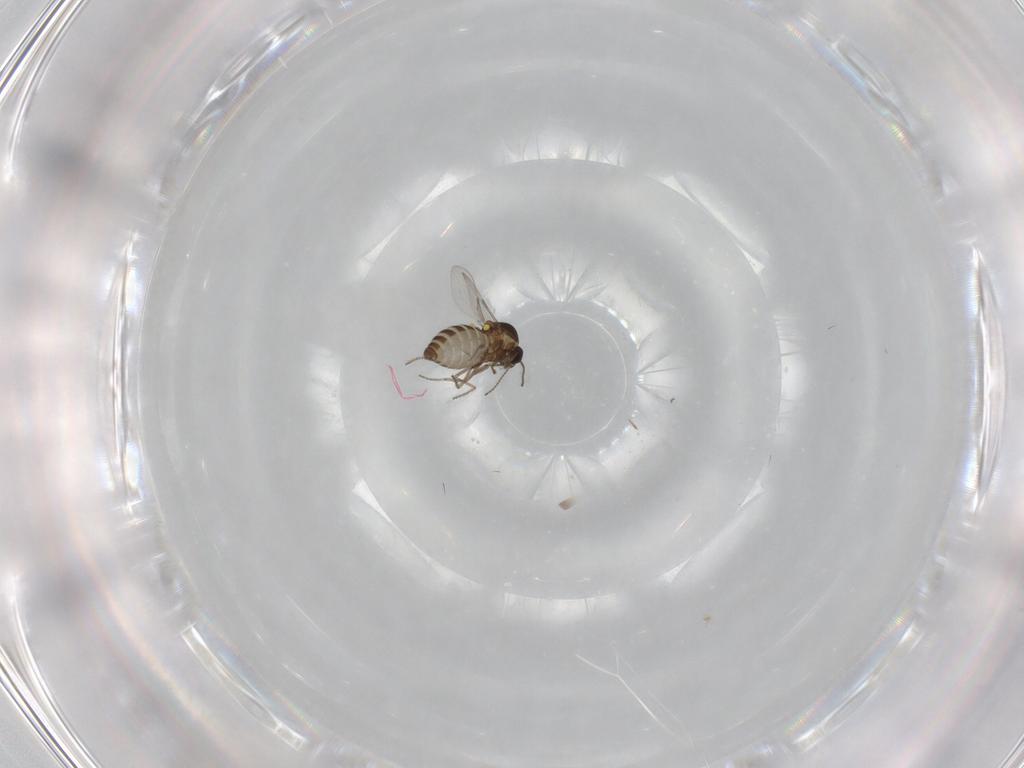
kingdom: Animalia
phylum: Arthropoda
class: Insecta
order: Diptera
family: Ceratopogonidae
